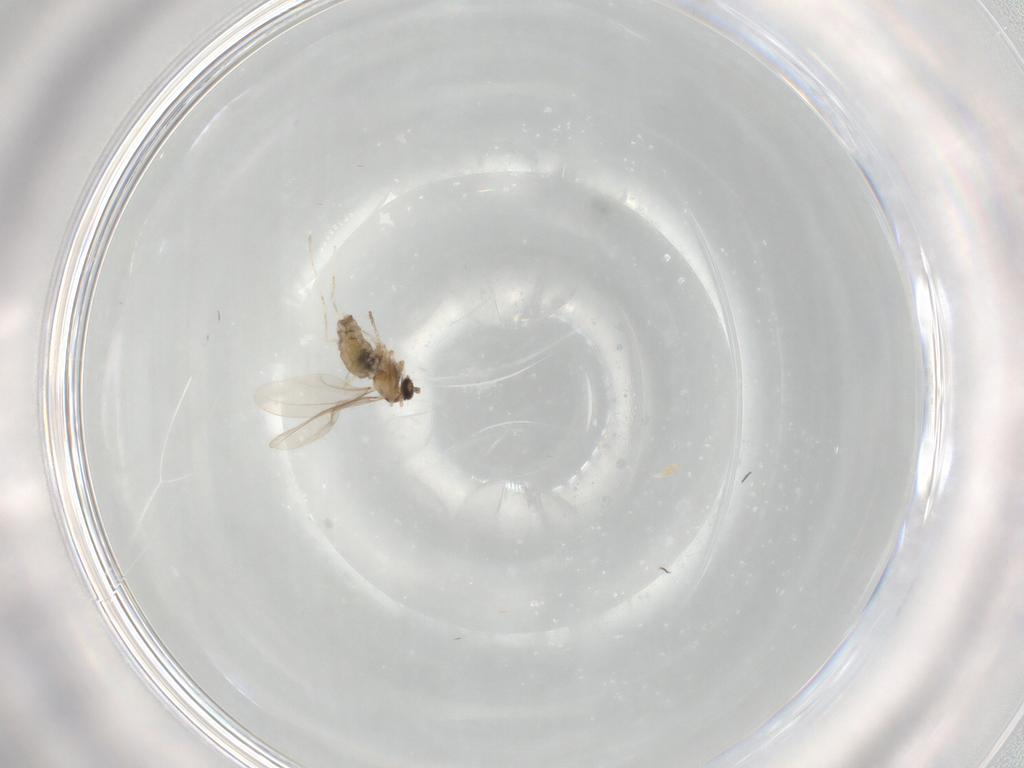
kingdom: Animalia
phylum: Arthropoda
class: Insecta
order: Diptera
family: Cecidomyiidae
